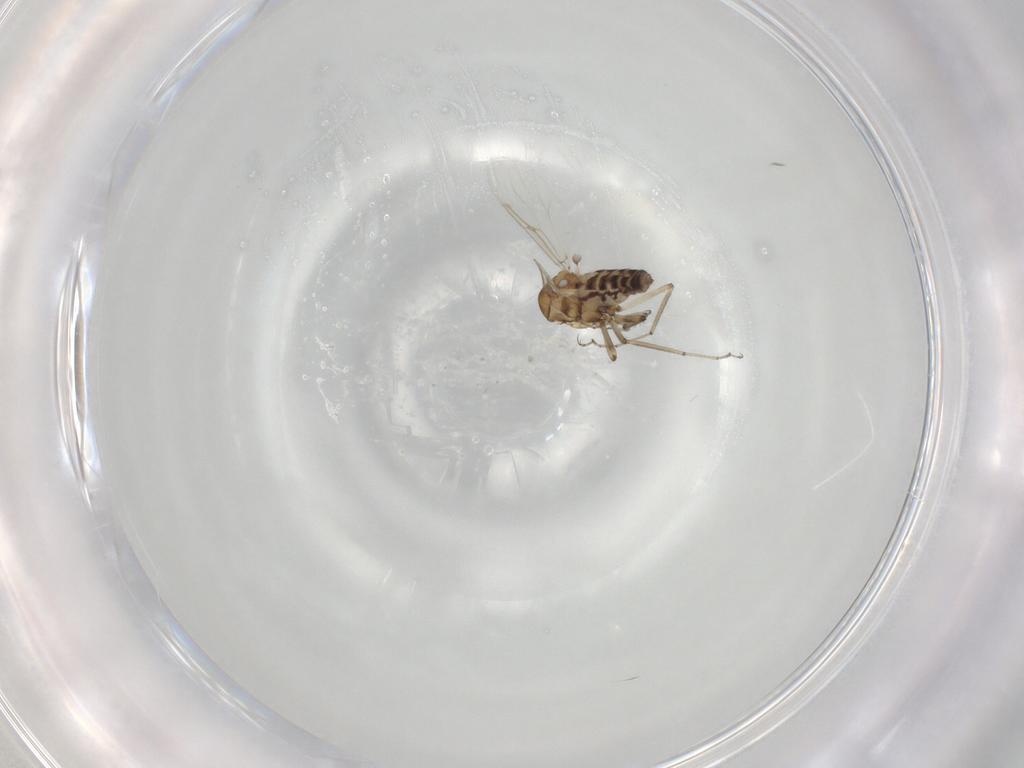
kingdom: Animalia
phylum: Arthropoda
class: Insecta
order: Diptera
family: Ceratopogonidae
